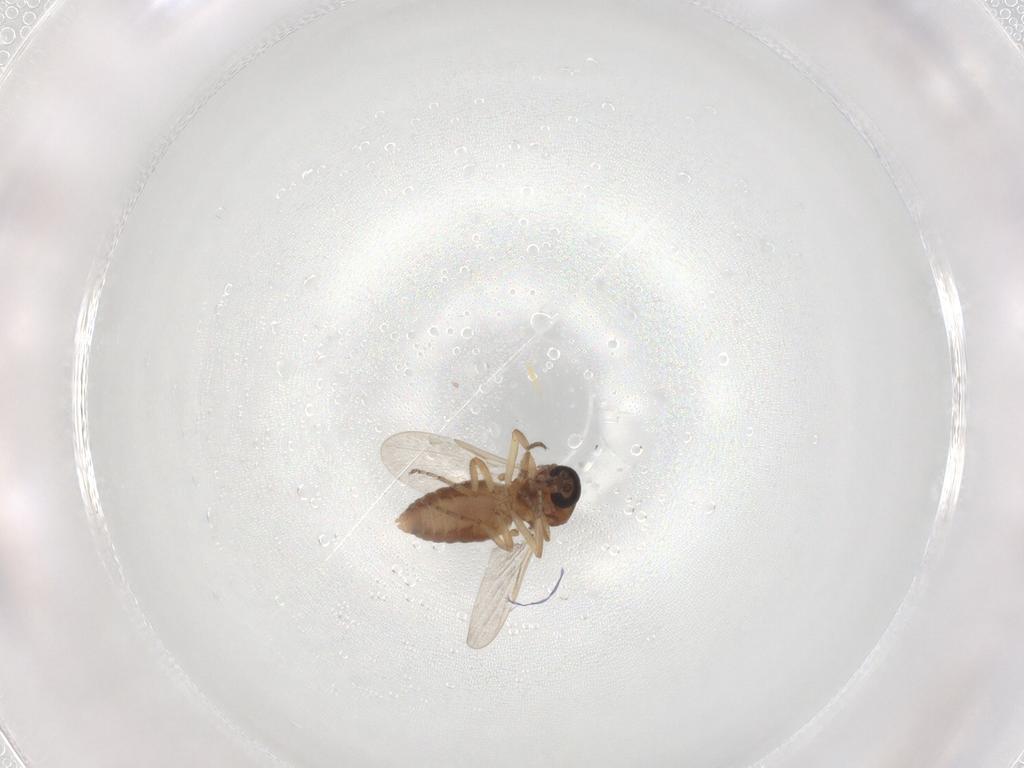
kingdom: Animalia
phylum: Arthropoda
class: Insecta
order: Diptera
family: Ceratopogonidae
